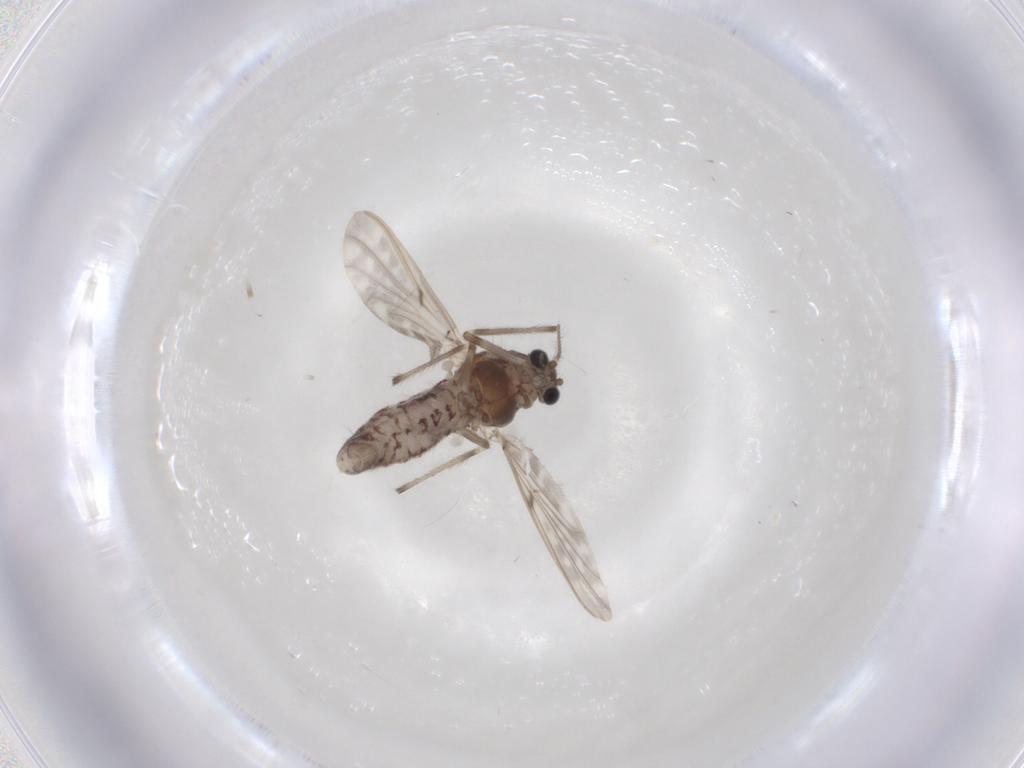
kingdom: Animalia
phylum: Arthropoda
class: Insecta
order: Diptera
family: Chironomidae
